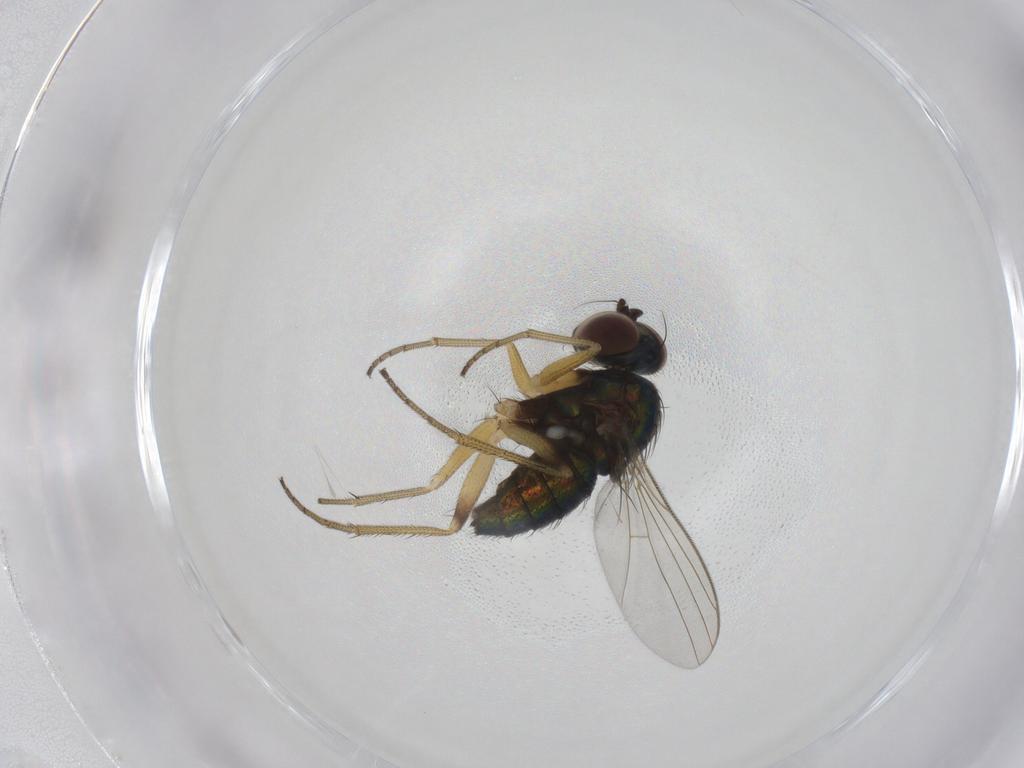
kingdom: Animalia
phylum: Arthropoda
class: Insecta
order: Diptera
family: Dolichopodidae
